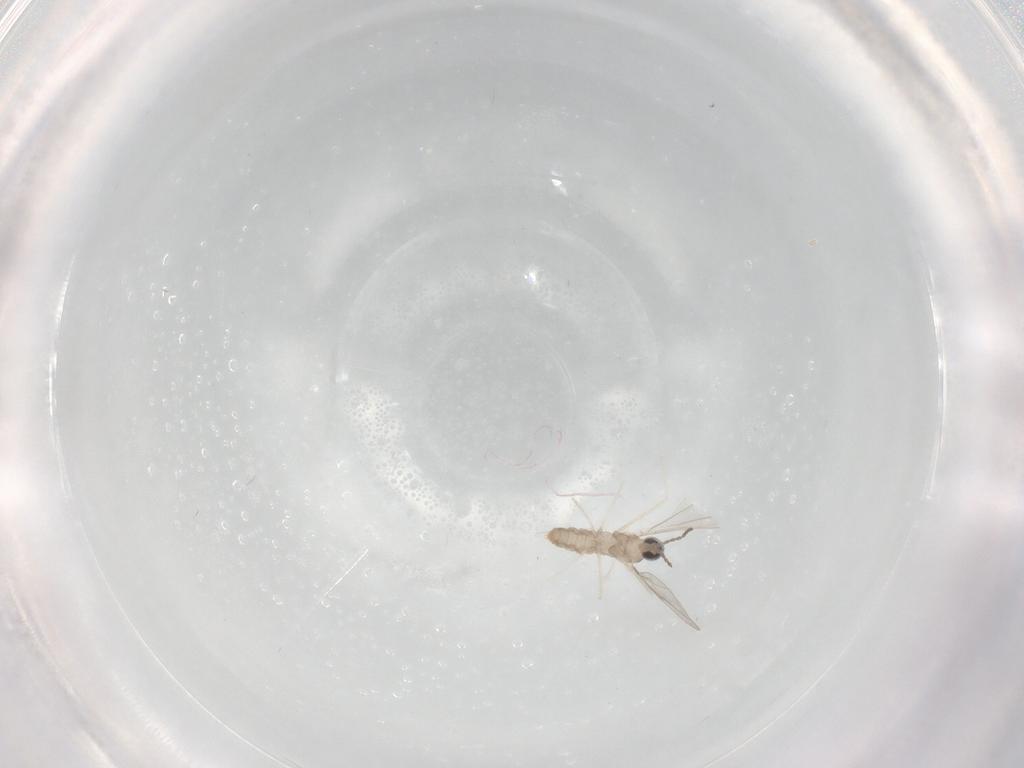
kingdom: Animalia
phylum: Arthropoda
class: Insecta
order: Diptera
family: Cecidomyiidae
